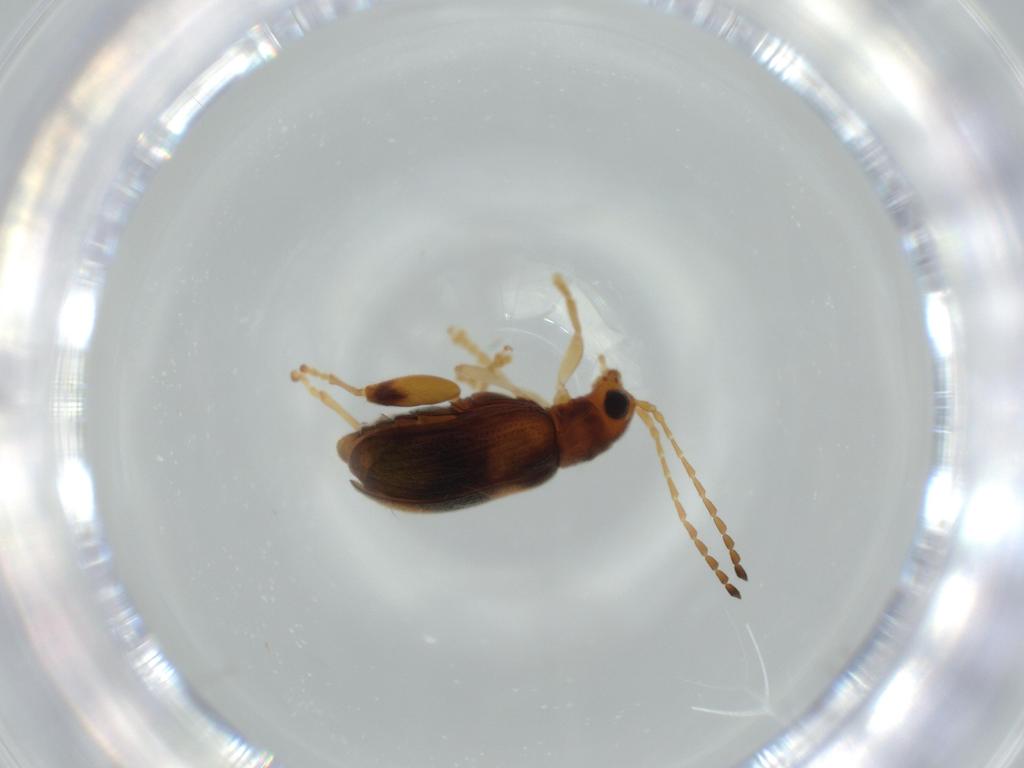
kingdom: Animalia
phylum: Arthropoda
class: Insecta
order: Coleoptera
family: Chrysomelidae
